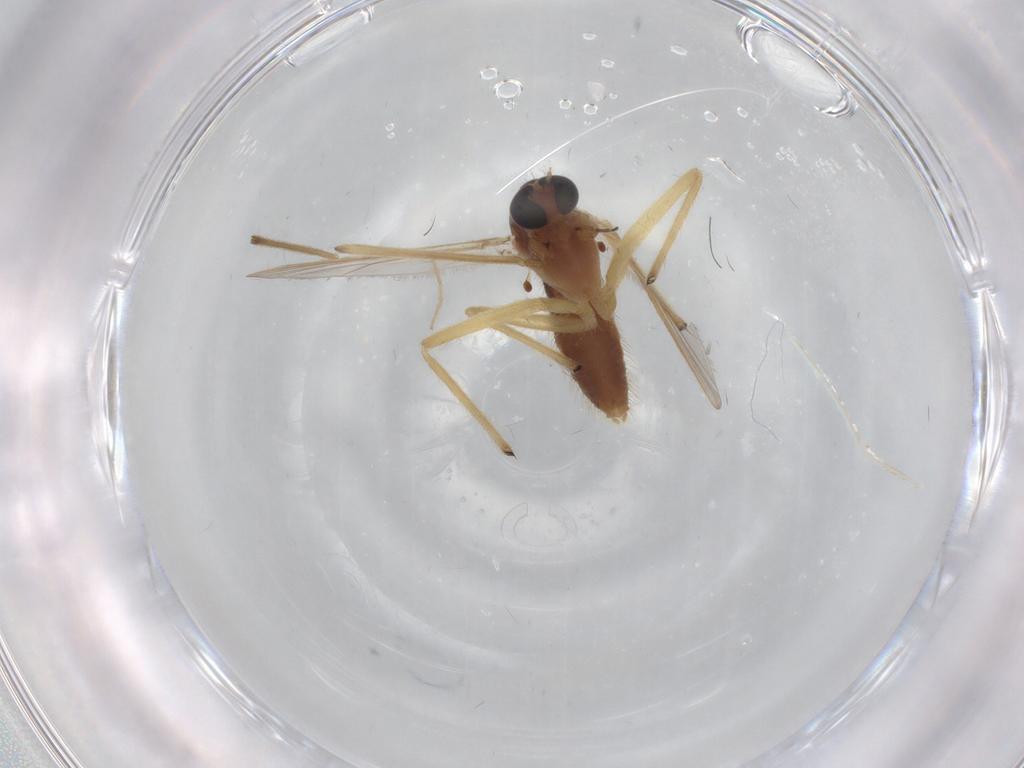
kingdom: Animalia
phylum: Arthropoda
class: Insecta
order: Diptera
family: Chironomidae
